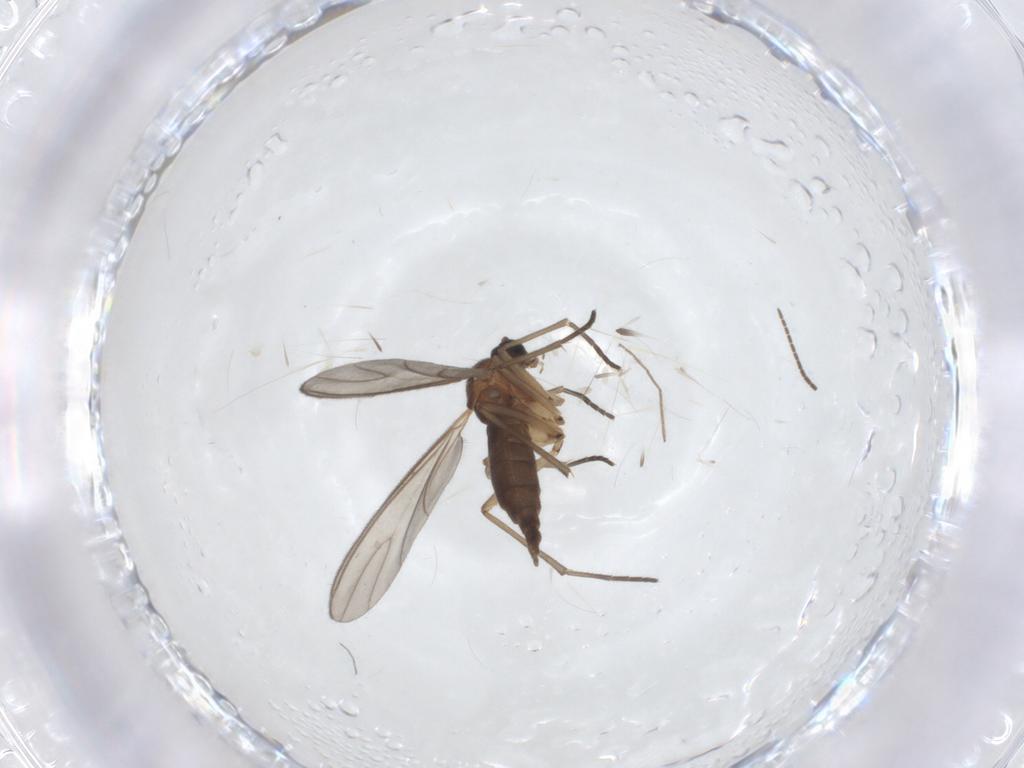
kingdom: Animalia
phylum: Arthropoda
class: Insecta
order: Diptera
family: Sciaridae
